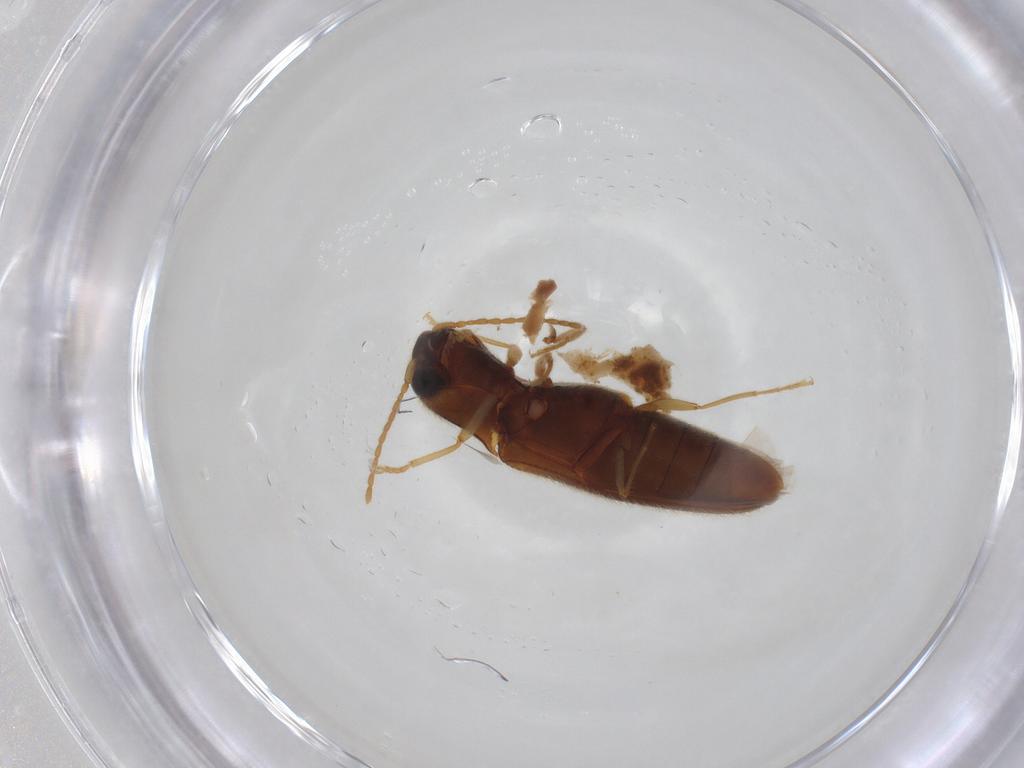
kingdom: Animalia
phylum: Arthropoda
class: Insecta
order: Coleoptera
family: Elateridae
